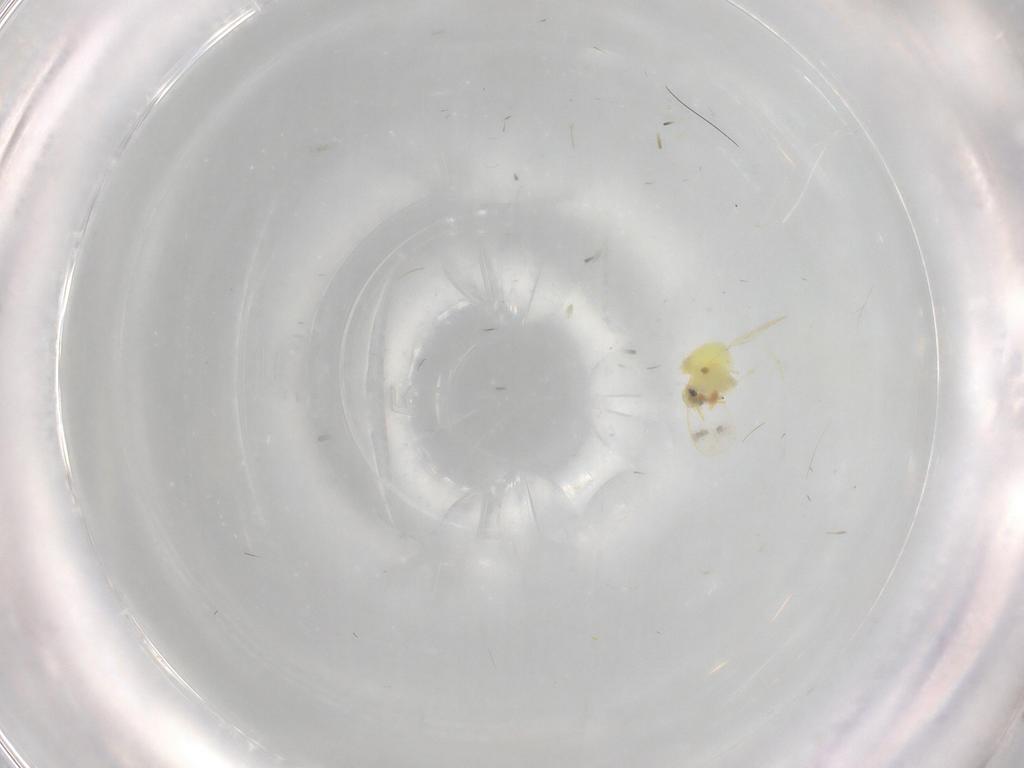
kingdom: Animalia
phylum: Arthropoda
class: Insecta
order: Hemiptera
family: Aleyrodidae
